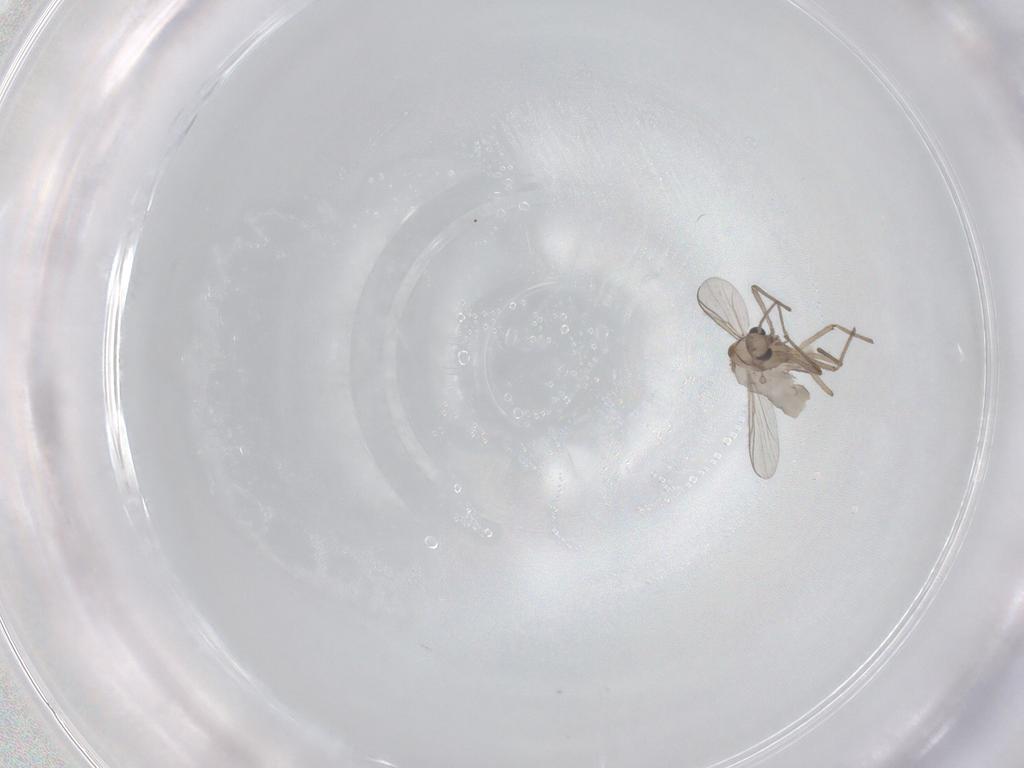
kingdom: Animalia
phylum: Arthropoda
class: Insecta
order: Diptera
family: Chironomidae
